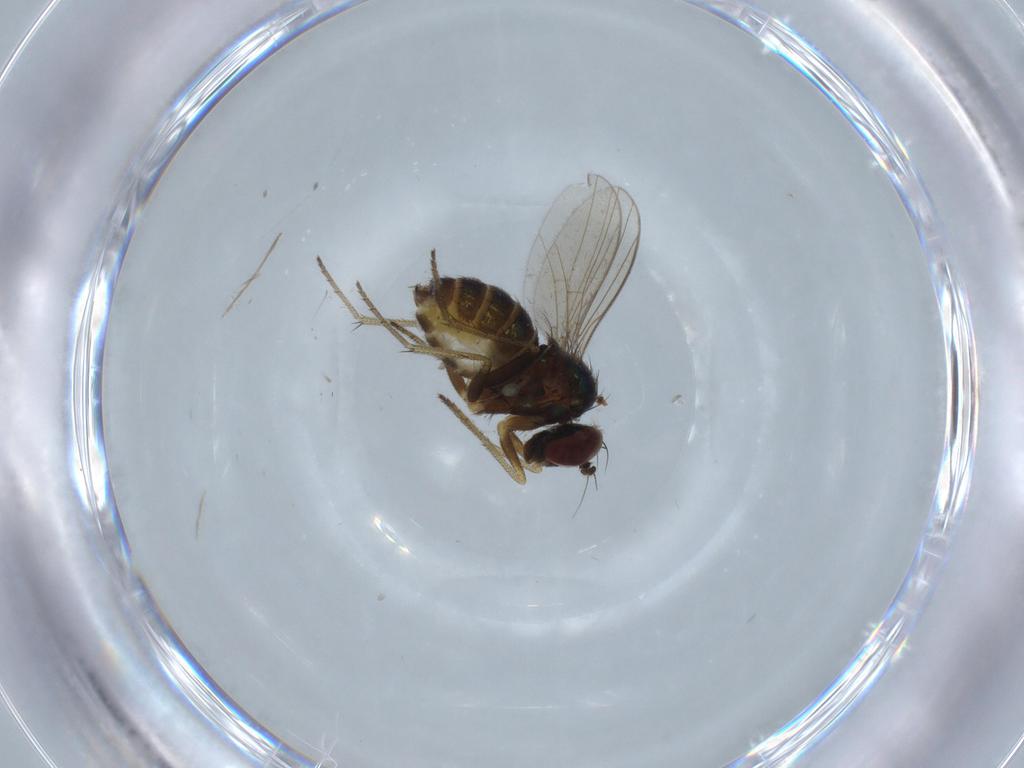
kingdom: Animalia
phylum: Arthropoda
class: Insecta
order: Diptera
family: Dolichopodidae
